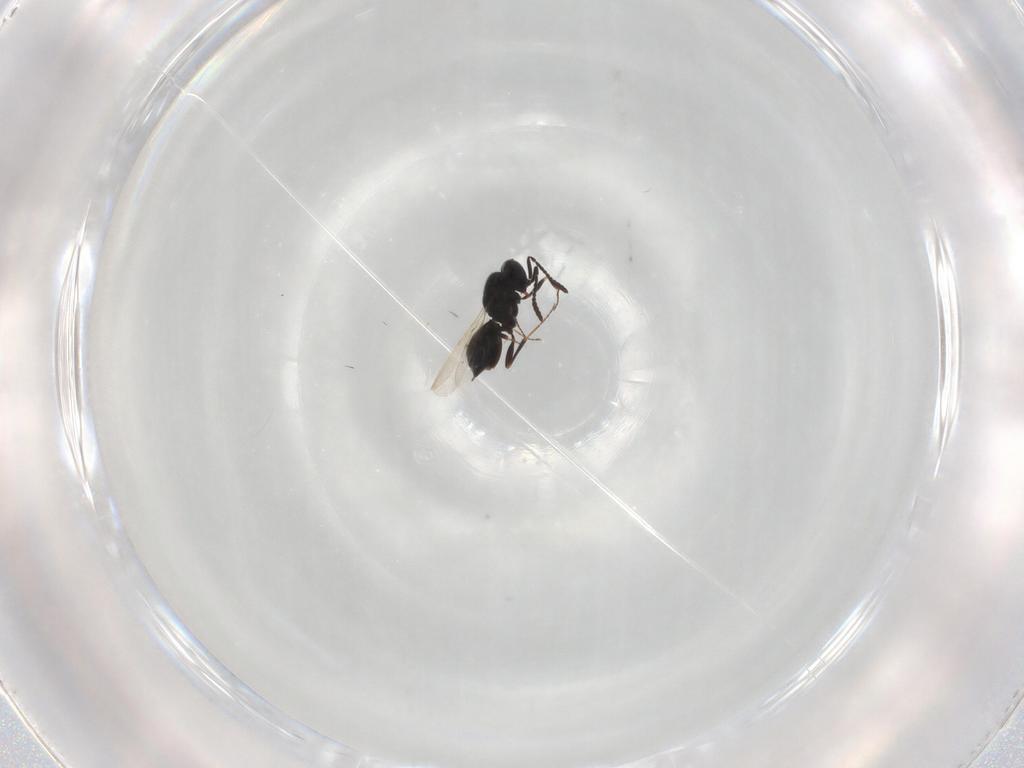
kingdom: Animalia
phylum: Arthropoda
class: Insecta
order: Hymenoptera
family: Scelionidae
